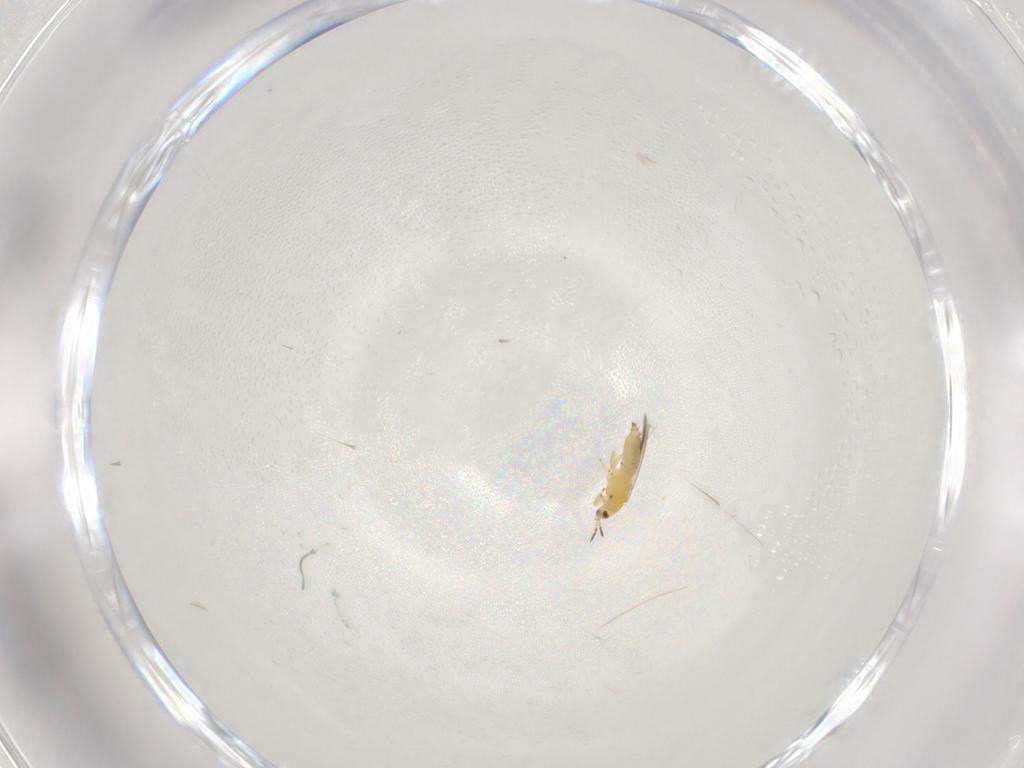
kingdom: Animalia
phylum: Arthropoda
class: Insecta
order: Thysanoptera
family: Thripidae
